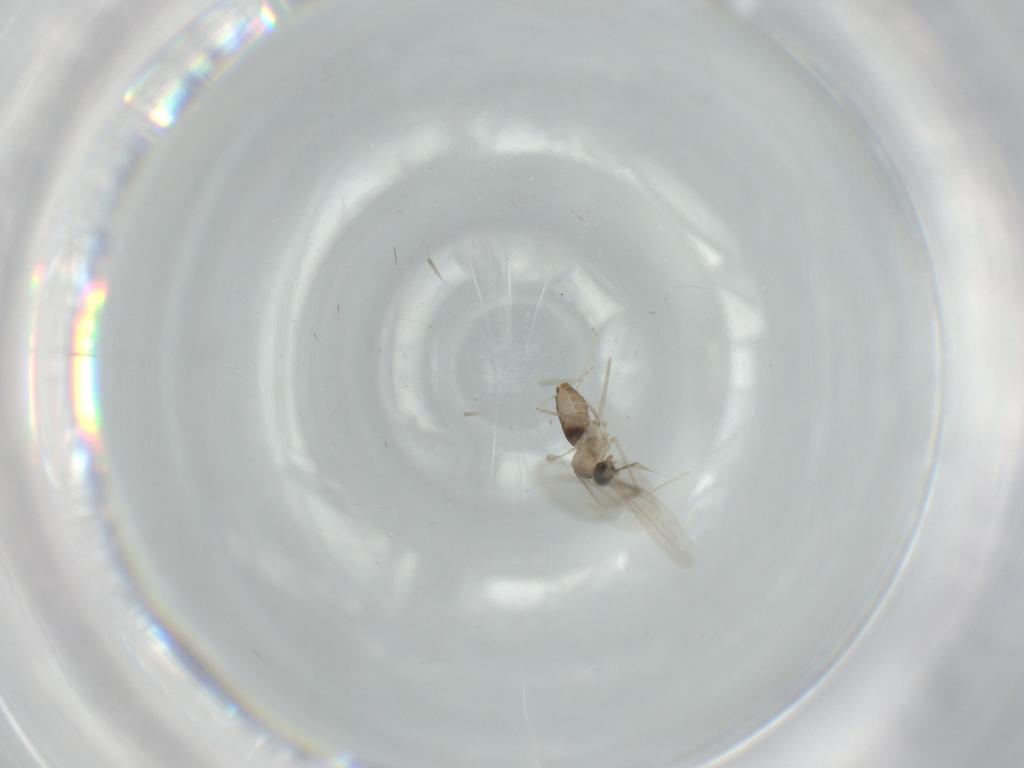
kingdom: Animalia
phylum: Arthropoda
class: Insecta
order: Diptera
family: Cecidomyiidae
